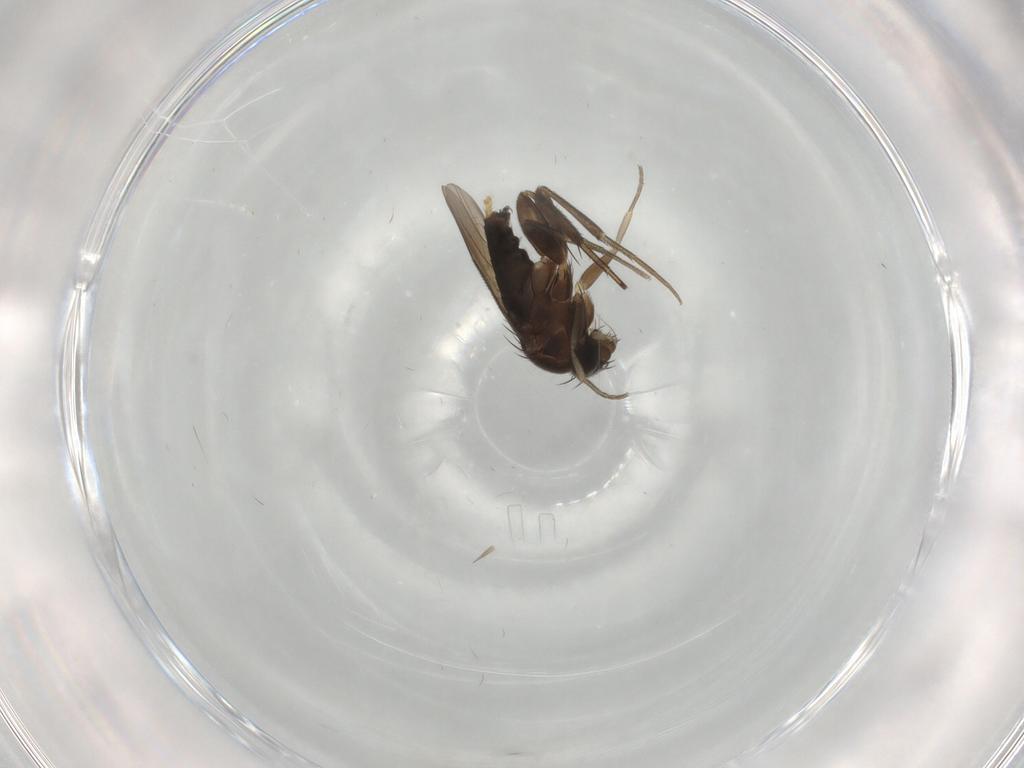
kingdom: Animalia
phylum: Arthropoda
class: Insecta
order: Diptera
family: Phoridae
